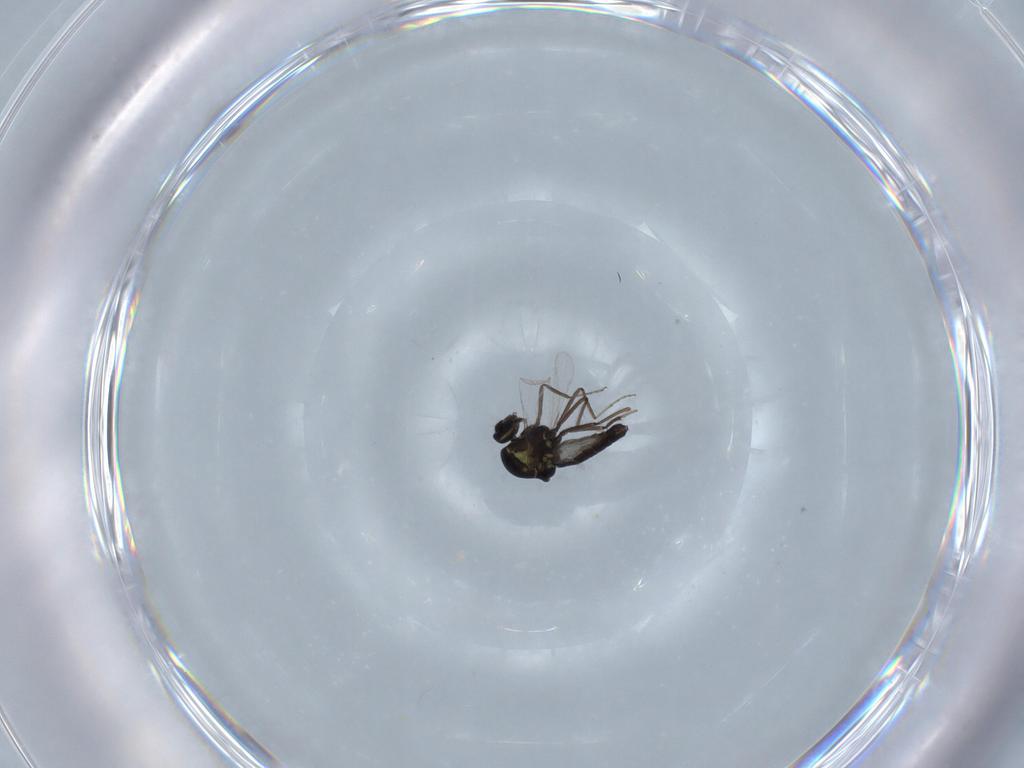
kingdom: Animalia
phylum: Arthropoda
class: Insecta
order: Diptera
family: Ceratopogonidae
